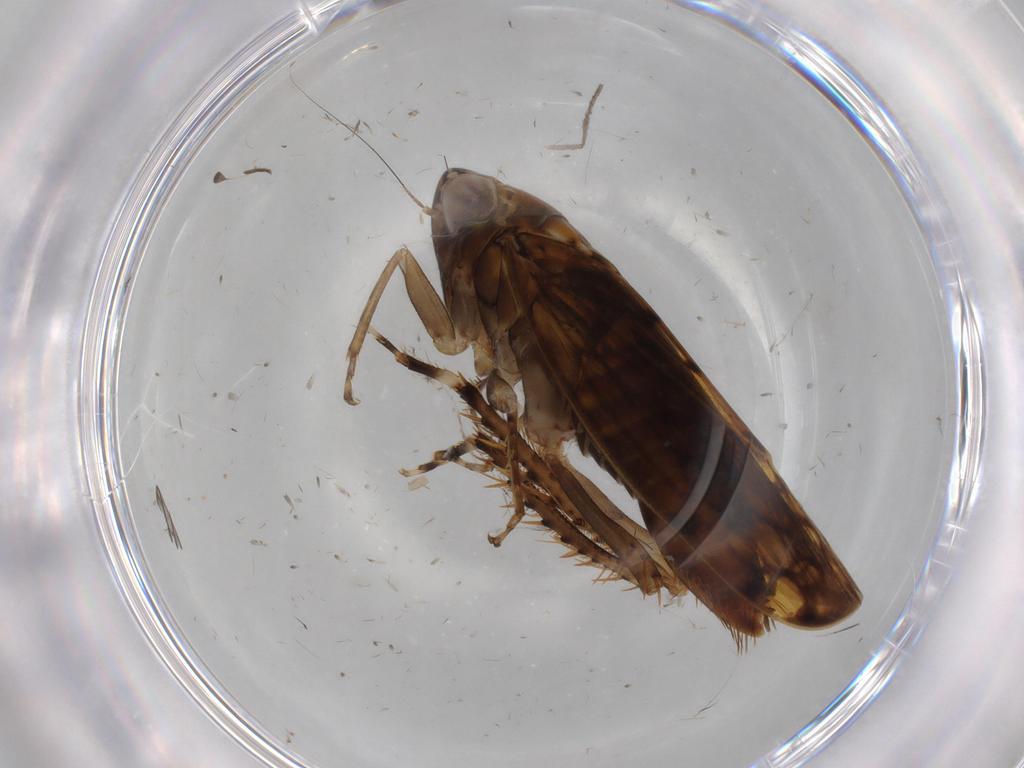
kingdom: Animalia
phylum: Arthropoda
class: Insecta
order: Hemiptera
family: Cicadellidae
